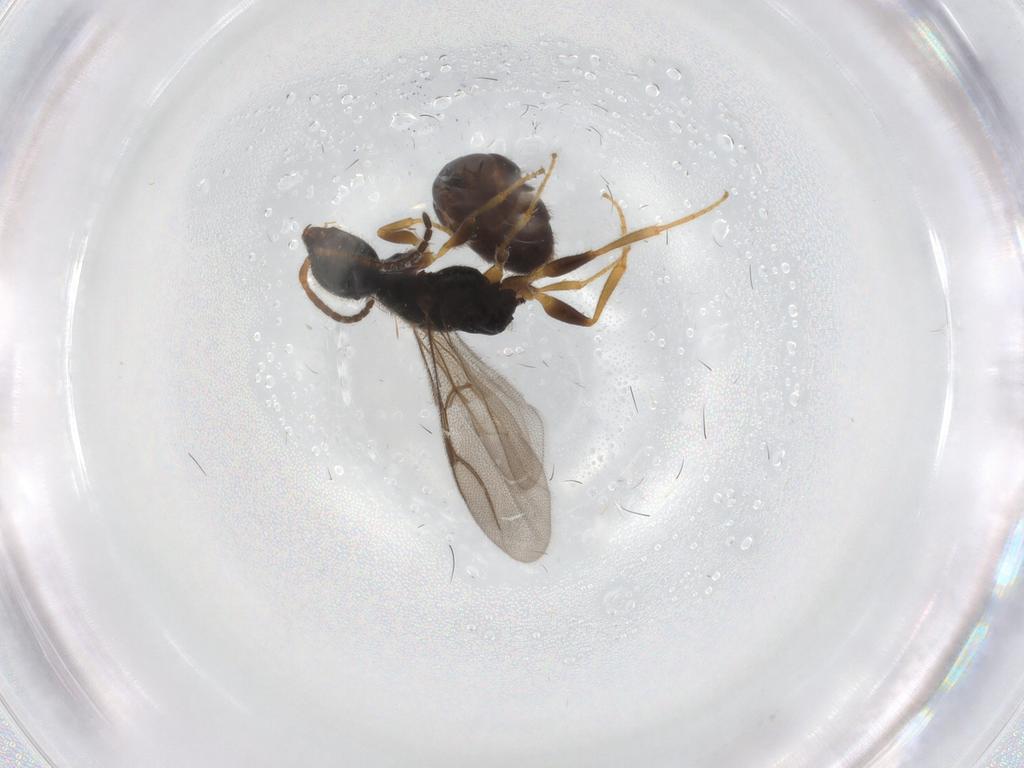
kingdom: Animalia
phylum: Arthropoda
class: Insecta
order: Hymenoptera
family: Bethylidae
